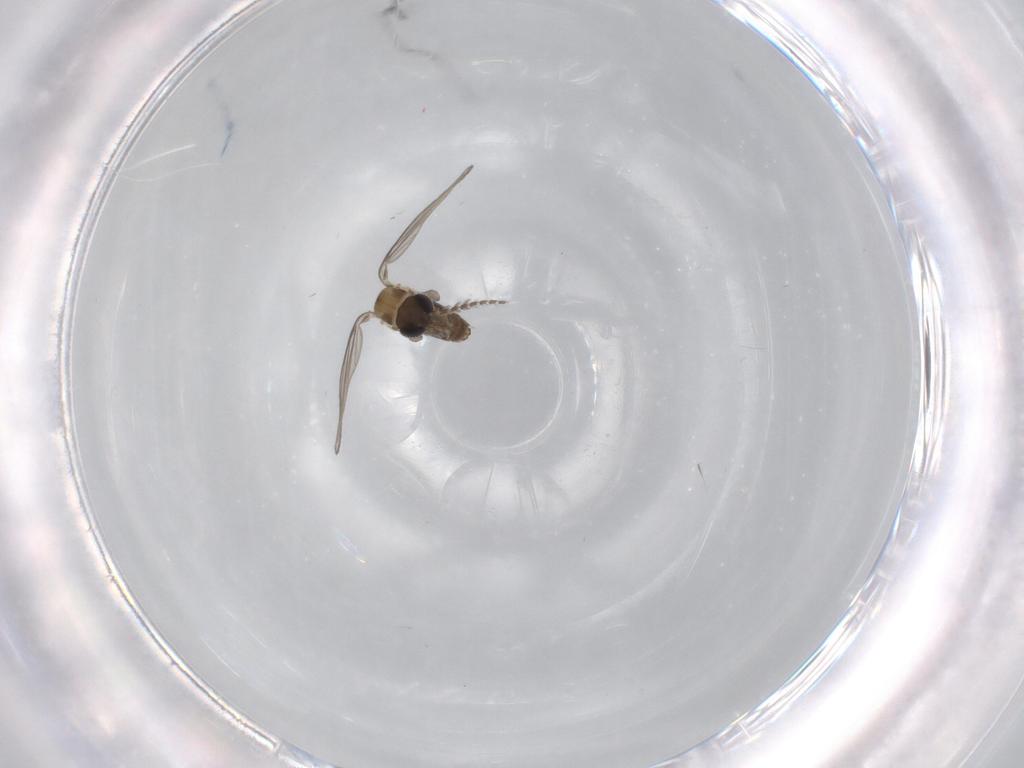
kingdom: Animalia
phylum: Arthropoda
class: Insecta
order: Diptera
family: Psychodidae
